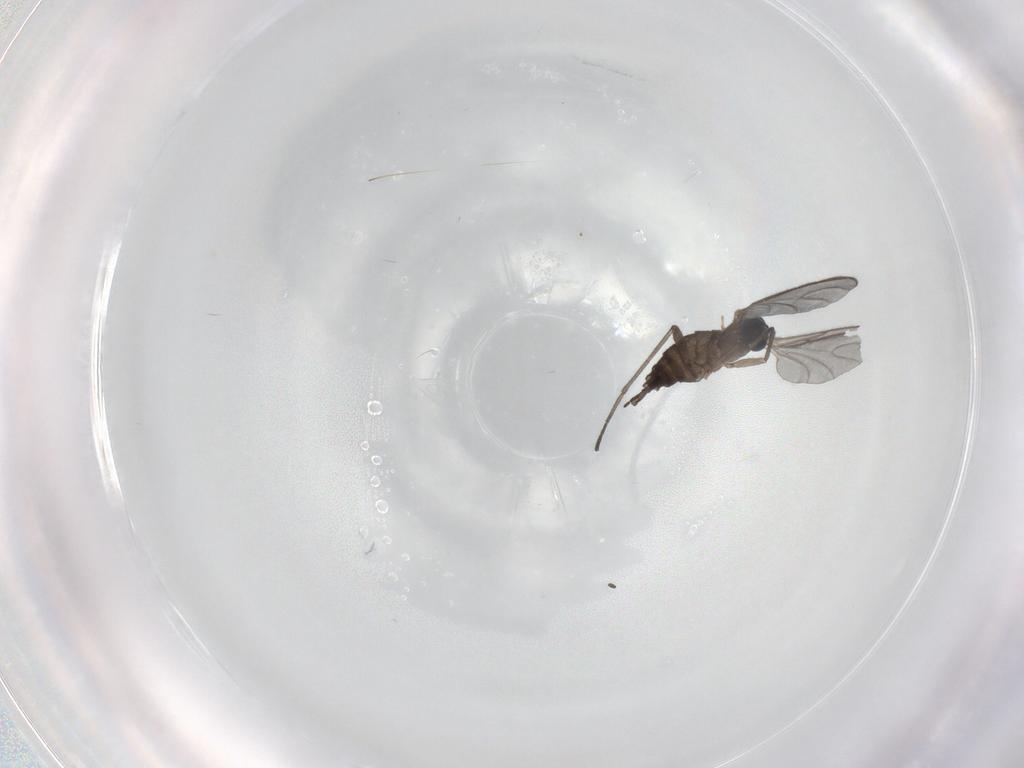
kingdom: Animalia
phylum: Arthropoda
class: Insecta
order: Diptera
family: Sciaridae
